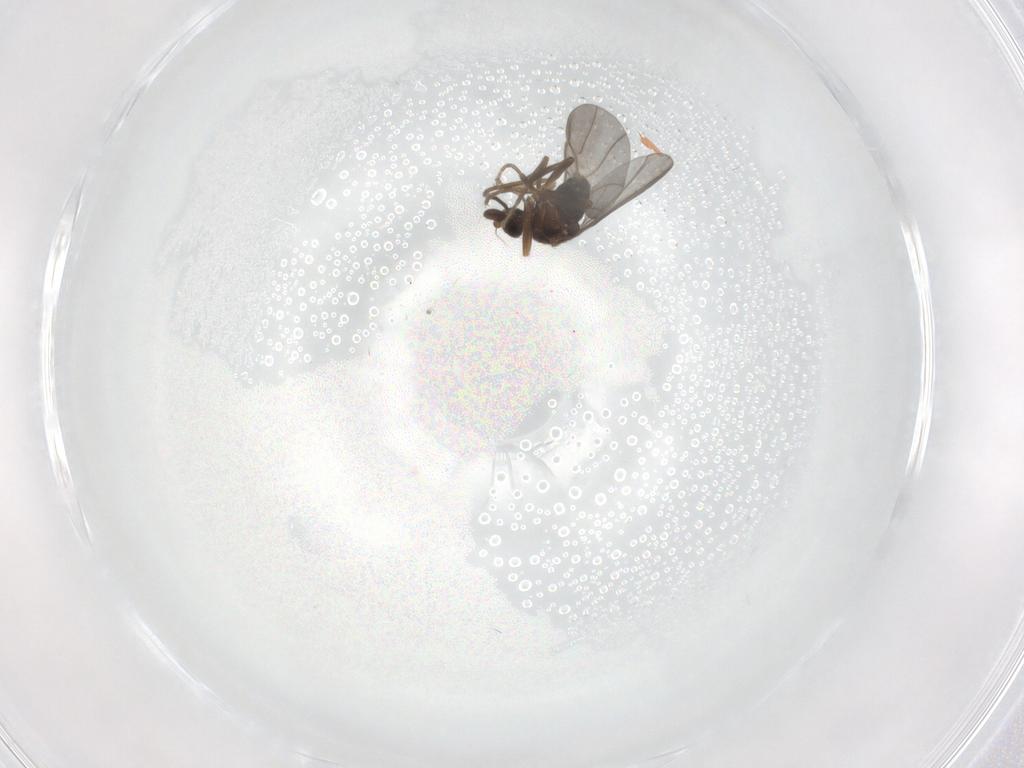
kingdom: Animalia
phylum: Arthropoda
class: Insecta
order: Diptera
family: Phoridae
